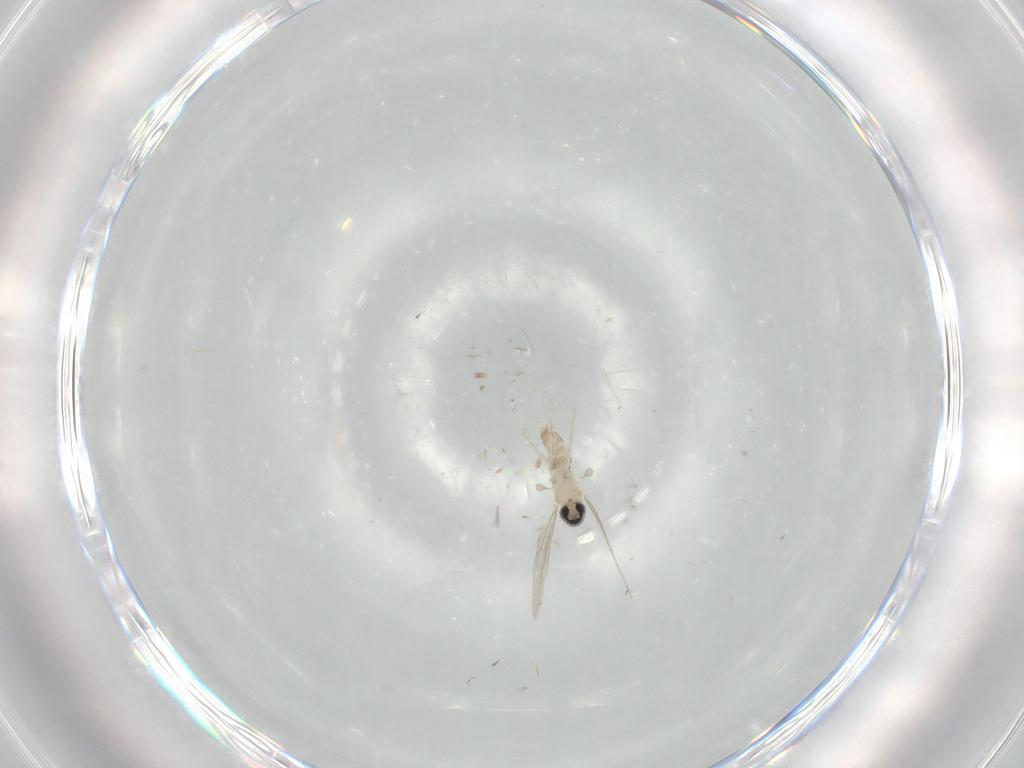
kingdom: Animalia
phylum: Arthropoda
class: Insecta
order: Diptera
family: Cecidomyiidae
